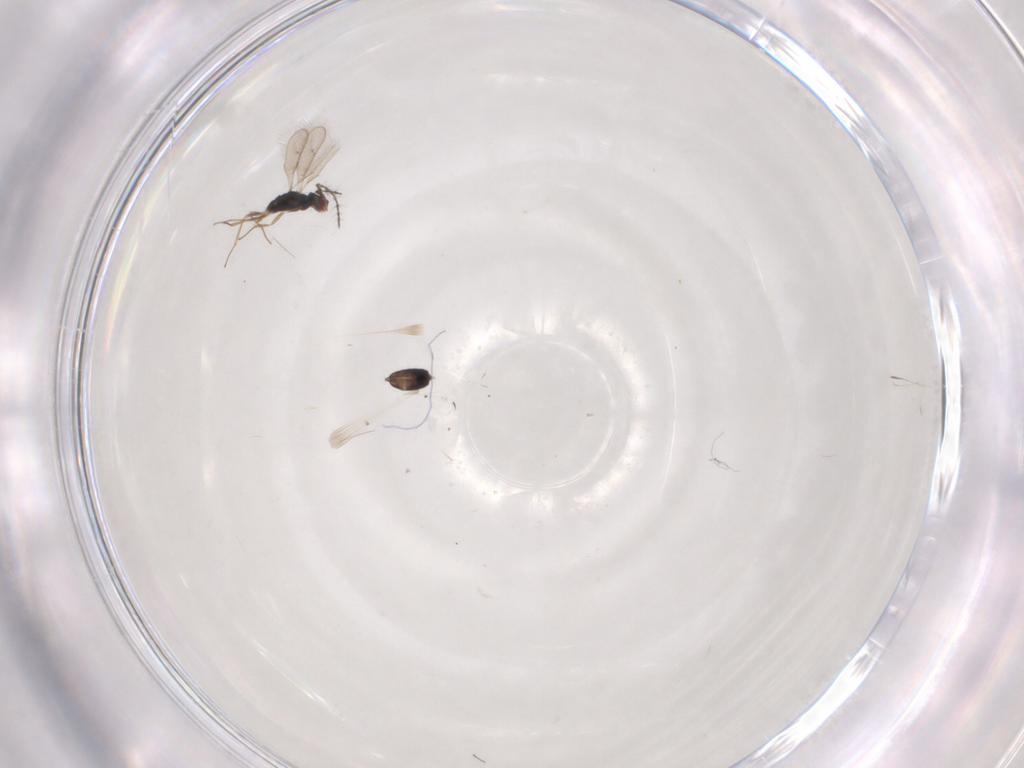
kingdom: Animalia
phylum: Arthropoda
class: Insecta
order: Hymenoptera
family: Pteromalidae
